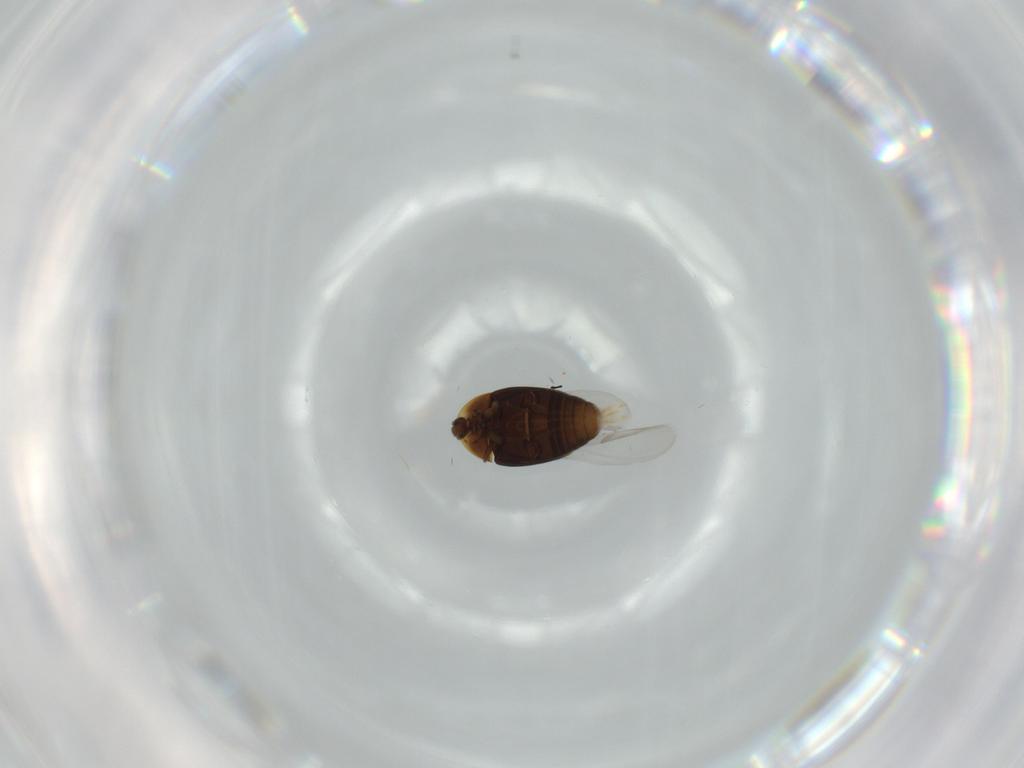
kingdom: Animalia
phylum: Arthropoda
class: Insecta
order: Coleoptera
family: Corylophidae
